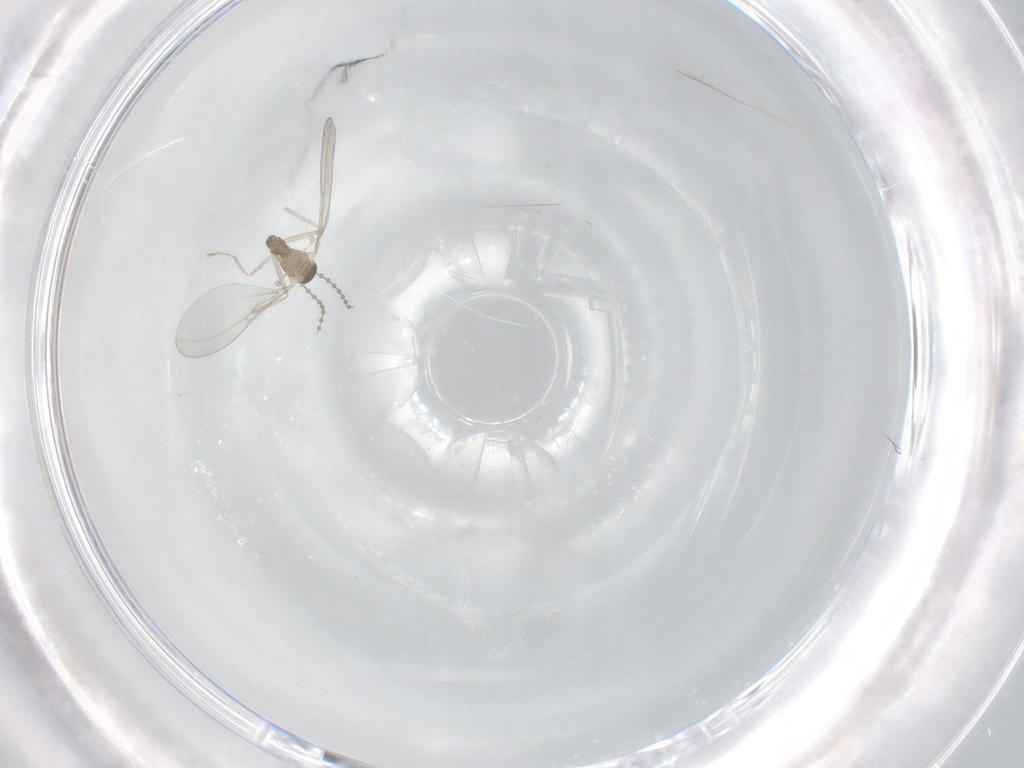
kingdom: Animalia
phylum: Arthropoda
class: Insecta
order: Diptera
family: Cecidomyiidae
